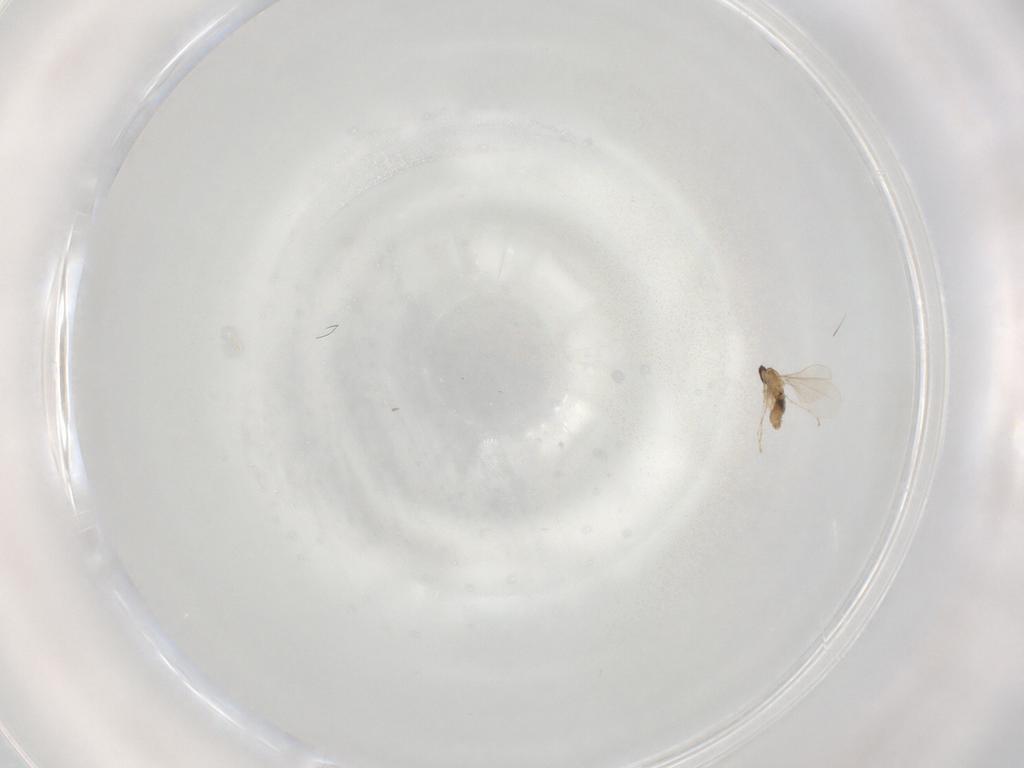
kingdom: Animalia
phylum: Arthropoda
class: Insecta
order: Diptera
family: Cecidomyiidae
